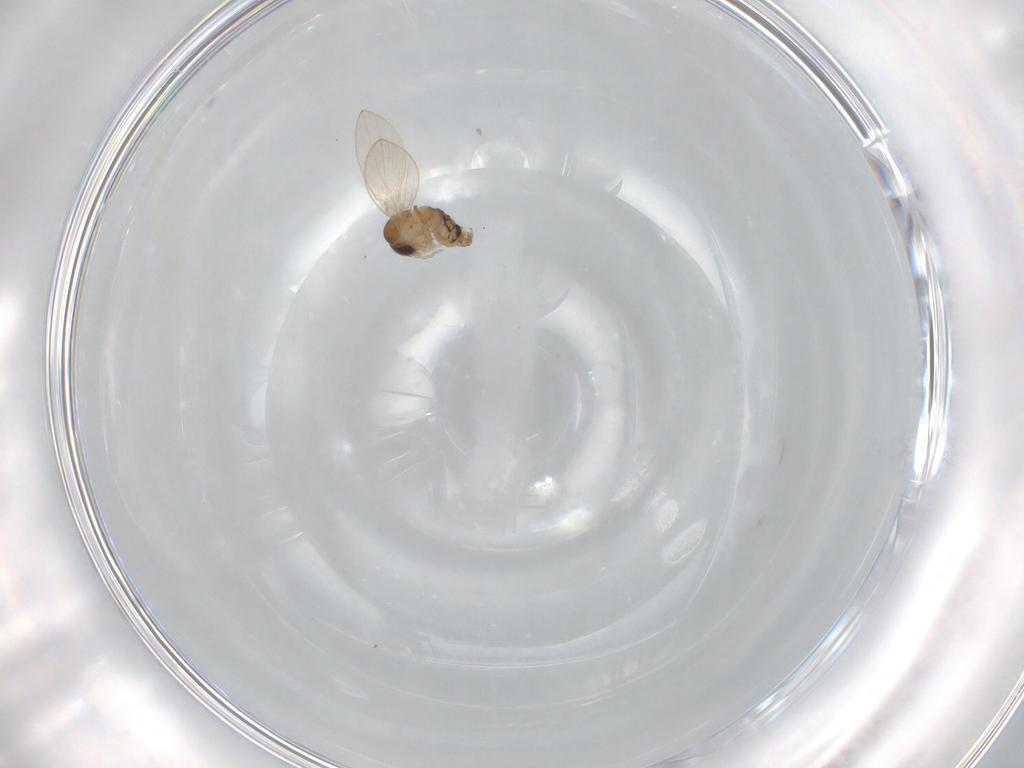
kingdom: Animalia
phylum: Arthropoda
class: Insecta
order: Diptera
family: Psychodidae
